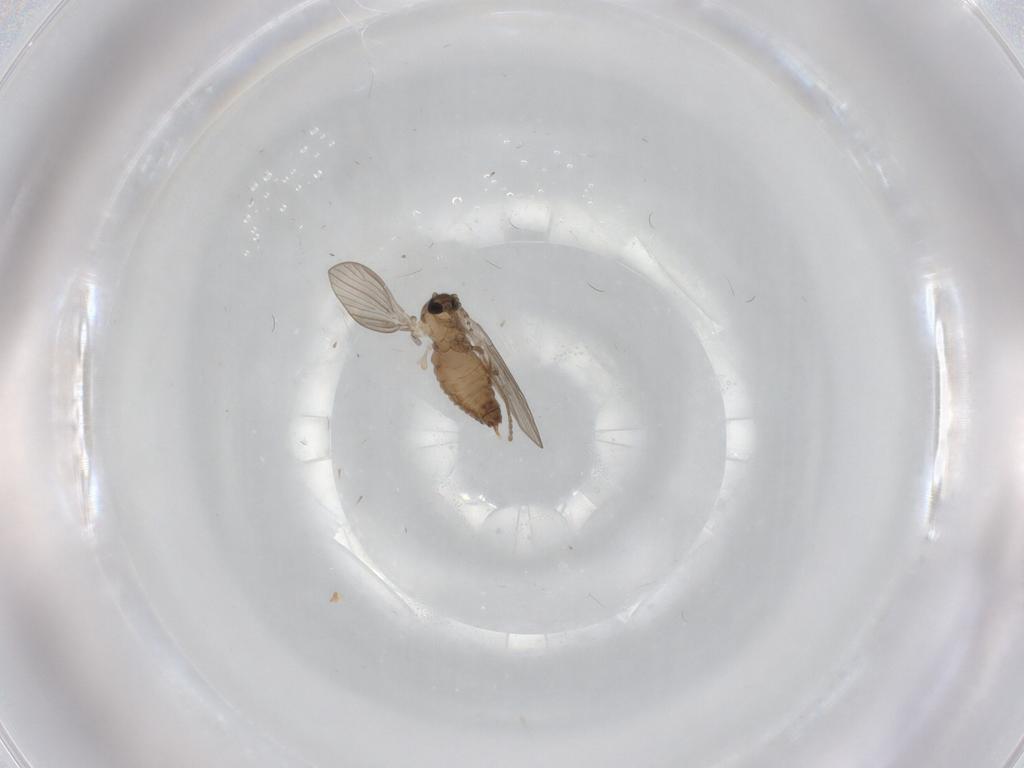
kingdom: Animalia
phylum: Arthropoda
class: Insecta
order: Diptera
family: Psychodidae
